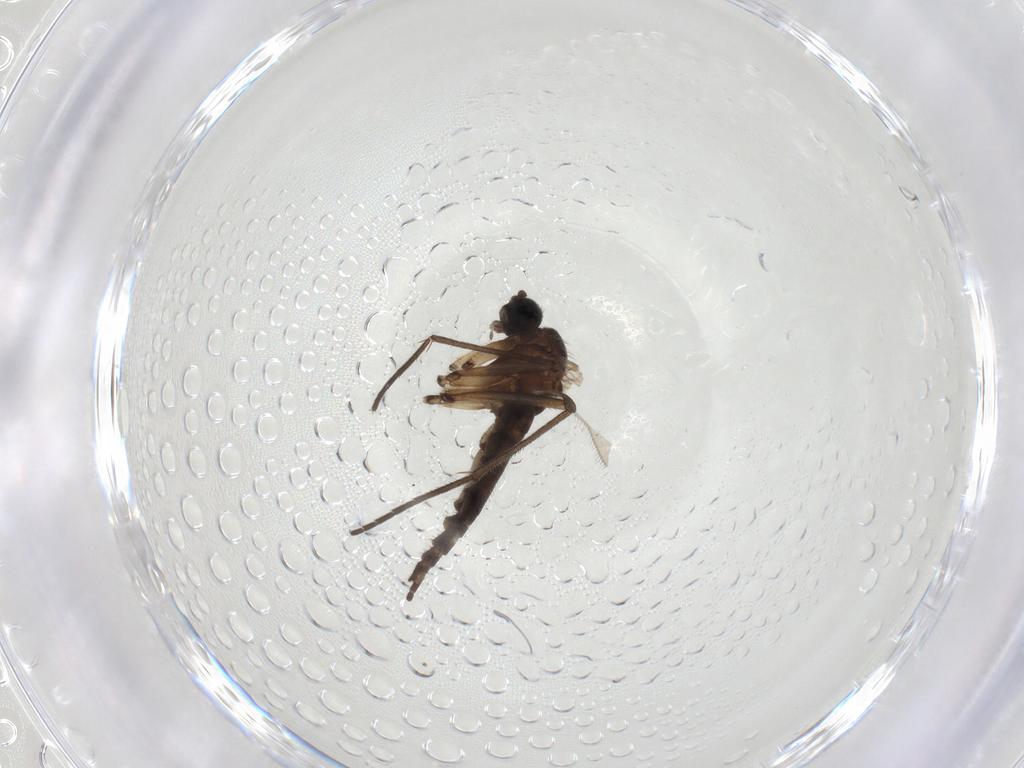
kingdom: Animalia
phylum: Arthropoda
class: Insecta
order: Diptera
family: Sciaridae
